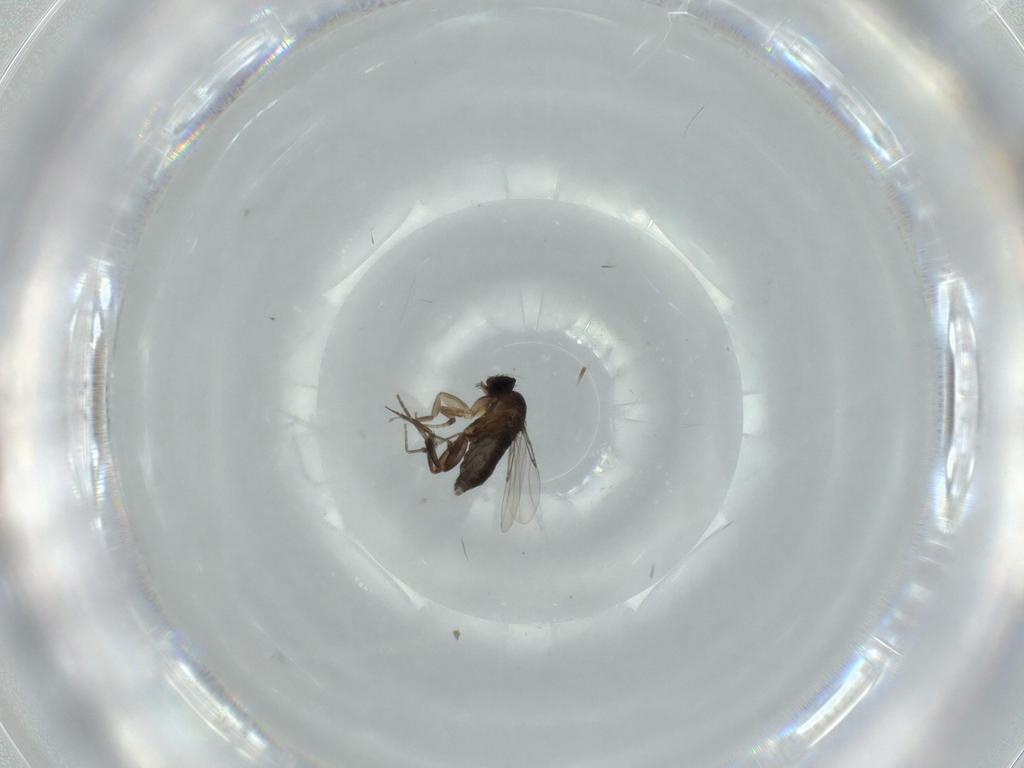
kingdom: Animalia
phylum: Arthropoda
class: Insecta
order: Diptera
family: Phoridae
